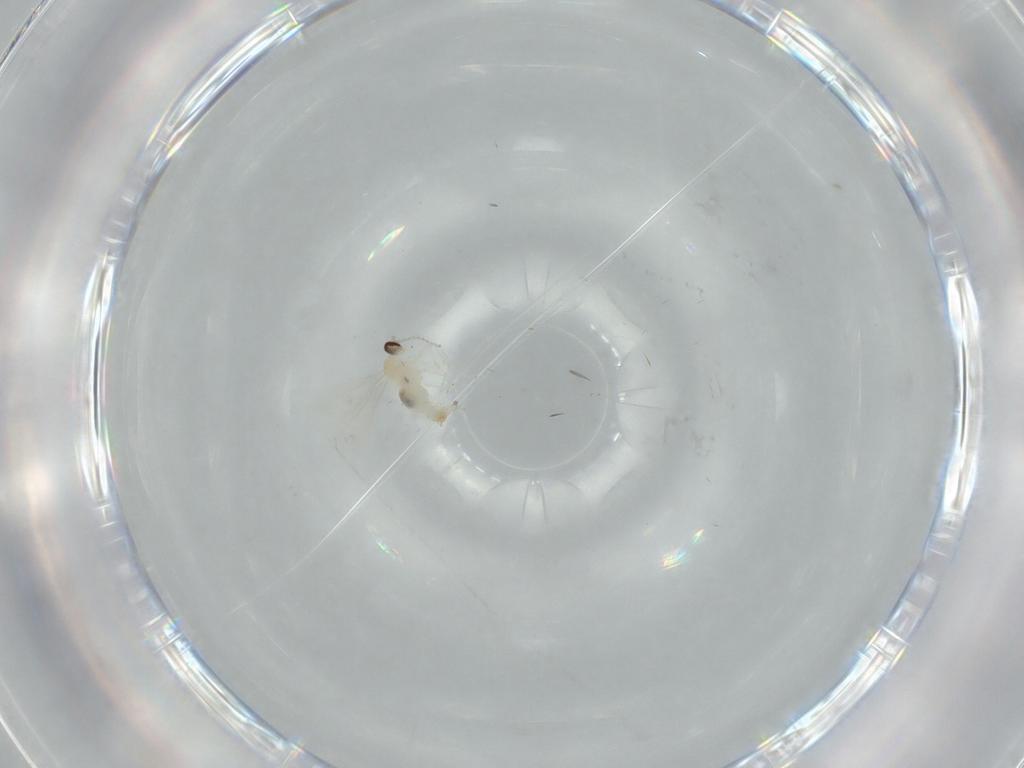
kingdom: Animalia
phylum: Arthropoda
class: Insecta
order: Diptera
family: Cecidomyiidae
